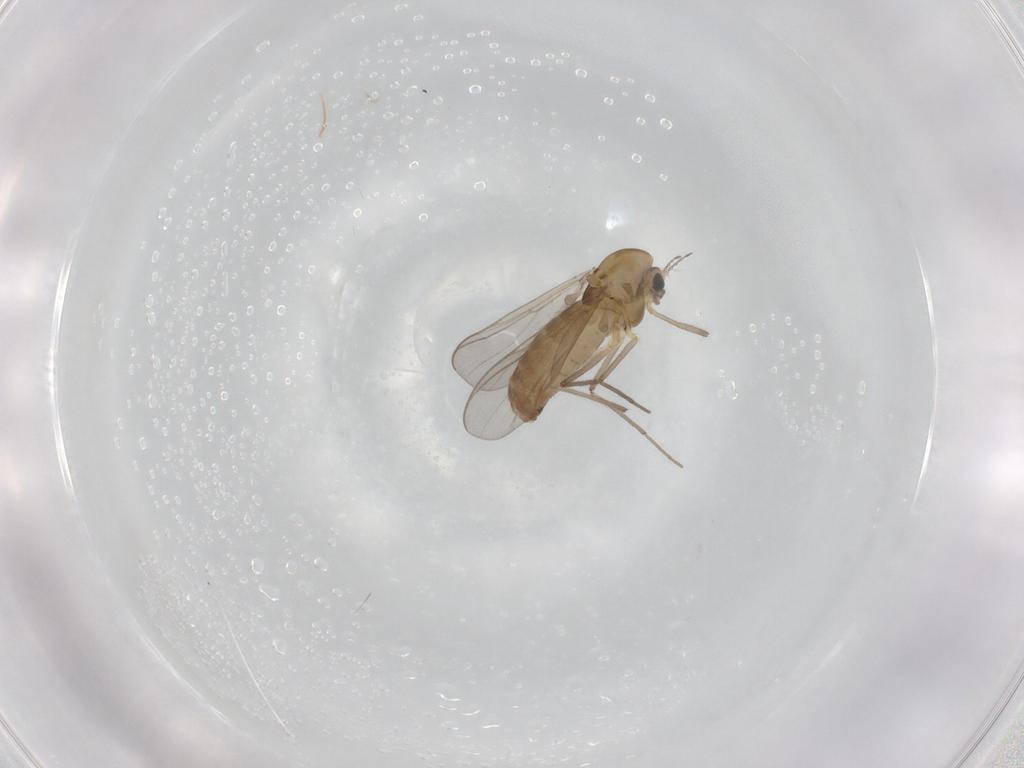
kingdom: Animalia
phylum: Arthropoda
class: Insecta
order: Diptera
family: Chironomidae
